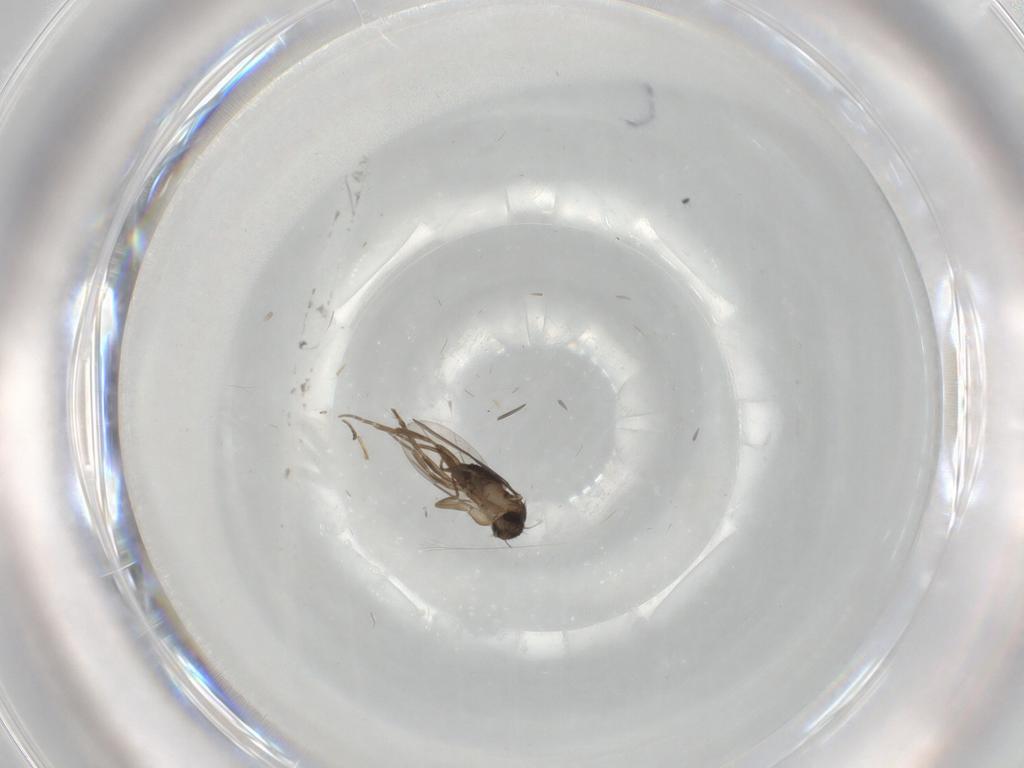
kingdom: Animalia
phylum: Arthropoda
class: Insecta
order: Diptera
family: Phoridae
